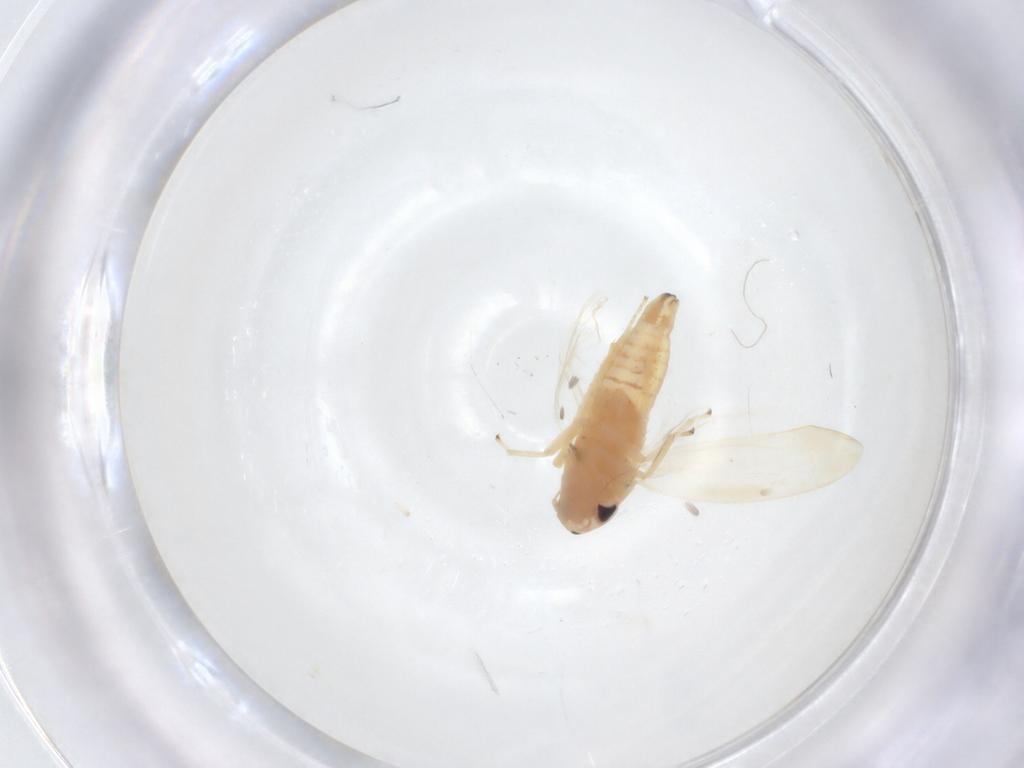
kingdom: Animalia
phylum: Arthropoda
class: Insecta
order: Hemiptera
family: Cicadellidae
